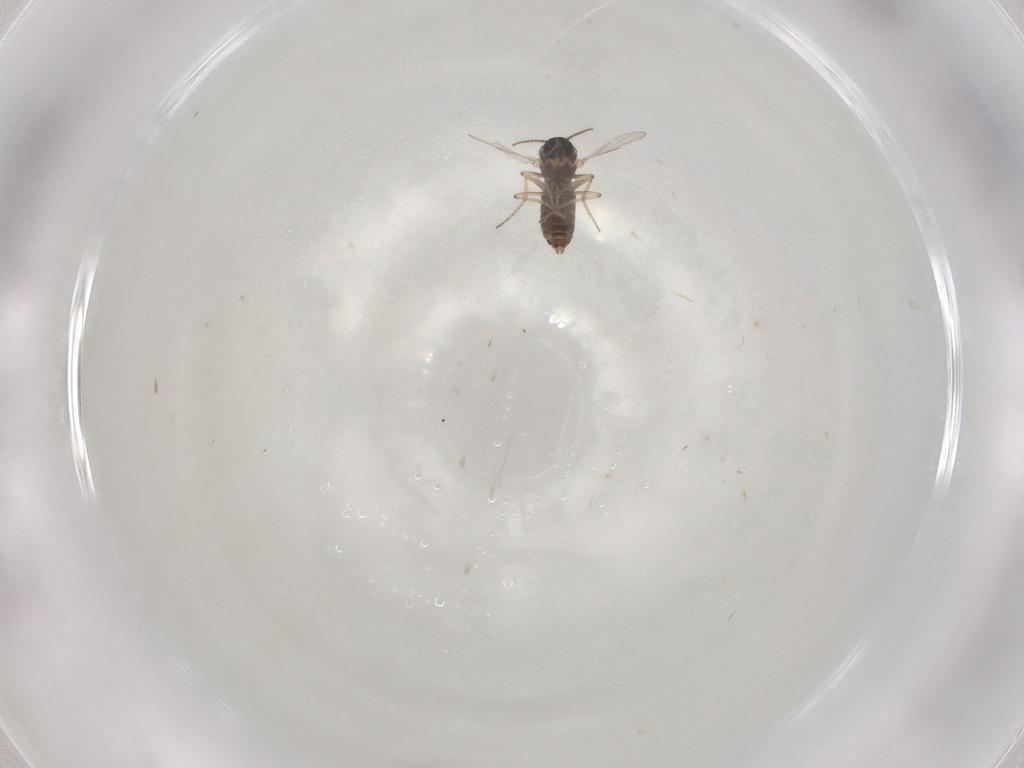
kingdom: Animalia
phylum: Arthropoda
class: Insecta
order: Diptera
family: Ceratopogonidae
